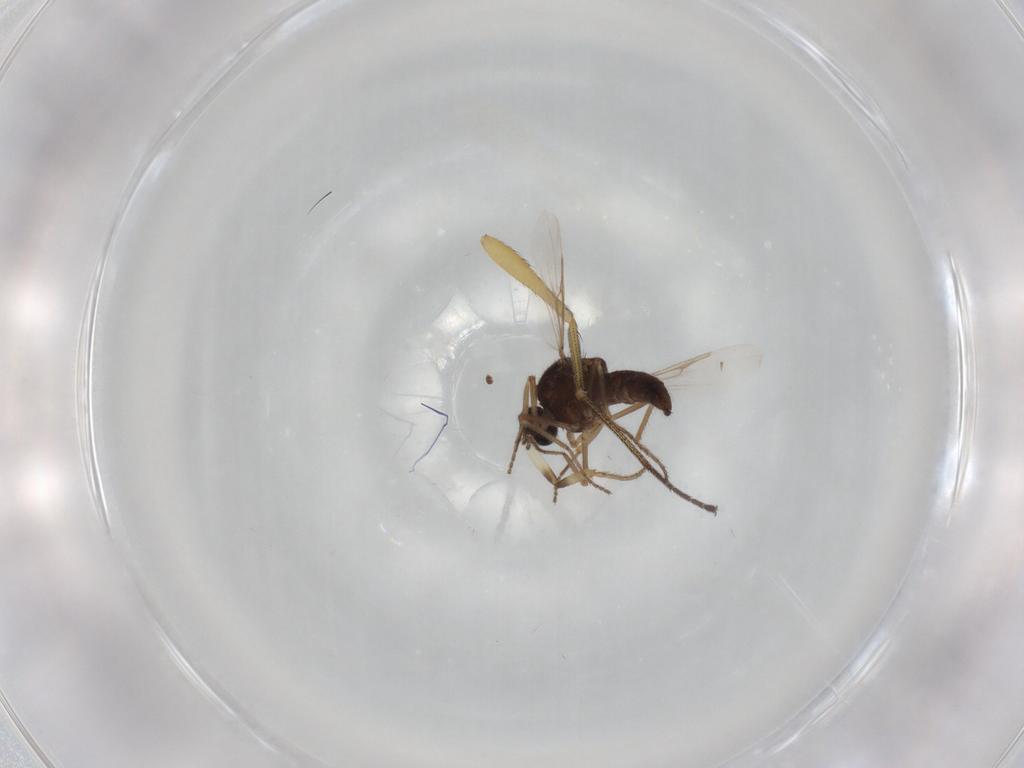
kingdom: Animalia
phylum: Arthropoda
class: Insecta
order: Diptera
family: Ceratopogonidae
